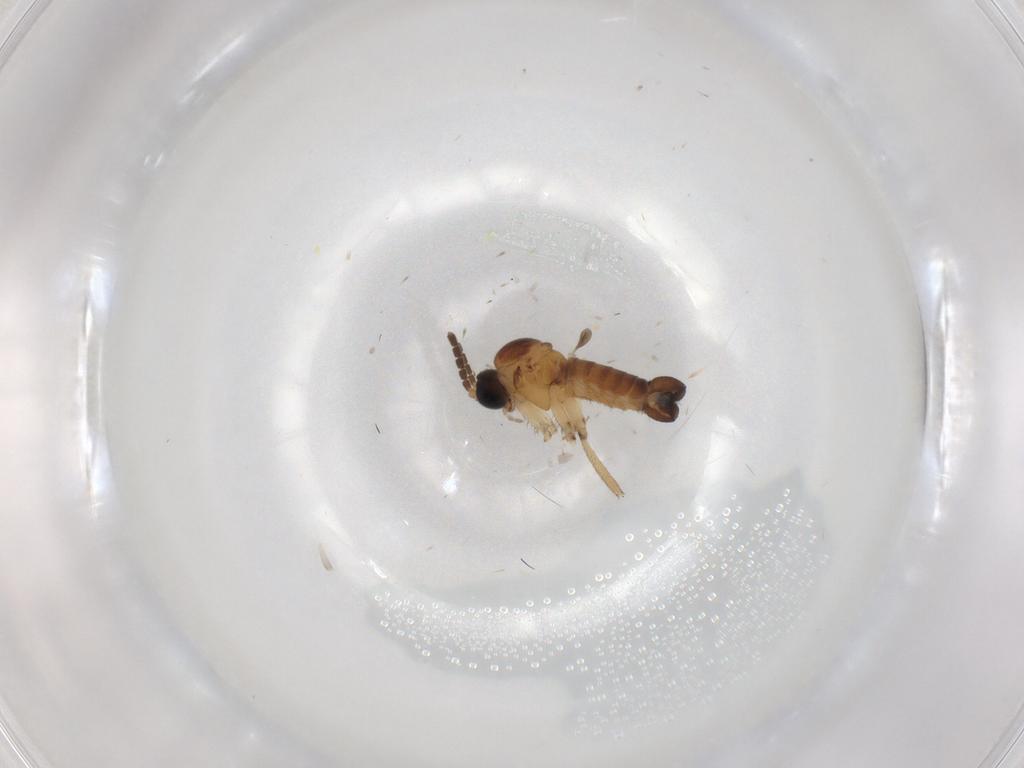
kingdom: Animalia
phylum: Arthropoda
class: Insecta
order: Diptera
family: Sciaridae
